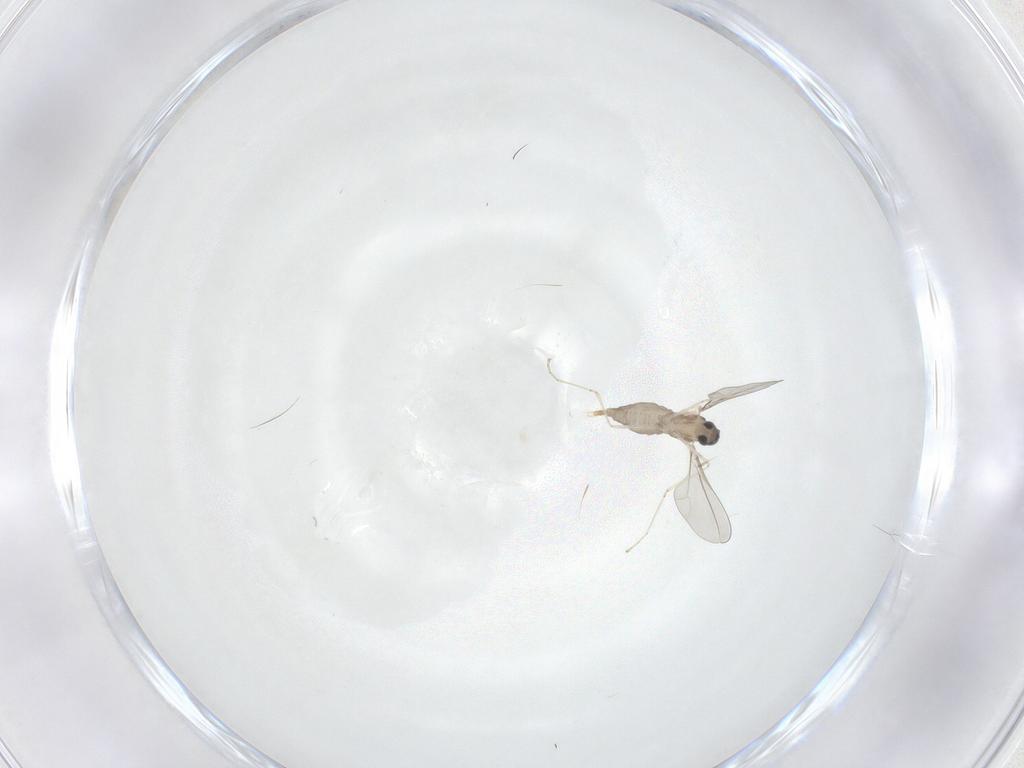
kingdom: Animalia
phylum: Arthropoda
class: Insecta
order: Diptera
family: Cecidomyiidae
